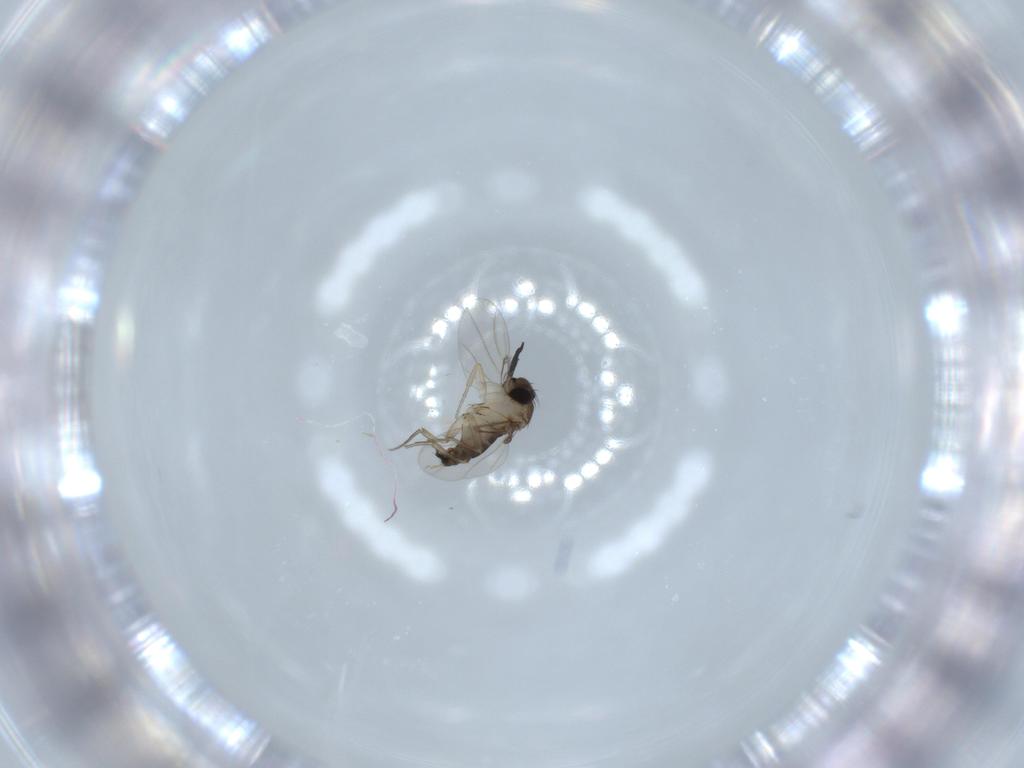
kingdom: Animalia
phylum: Arthropoda
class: Insecta
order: Diptera
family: Phoridae
